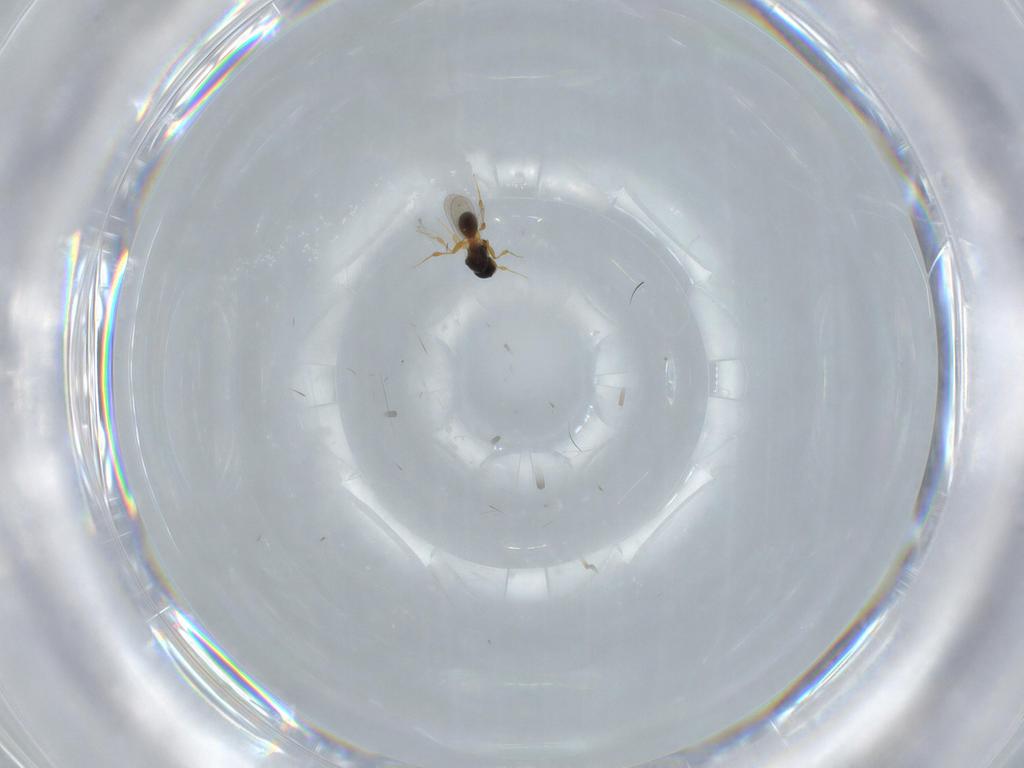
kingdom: Animalia
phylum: Arthropoda
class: Insecta
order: Hymenoptera
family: Platygastridae
